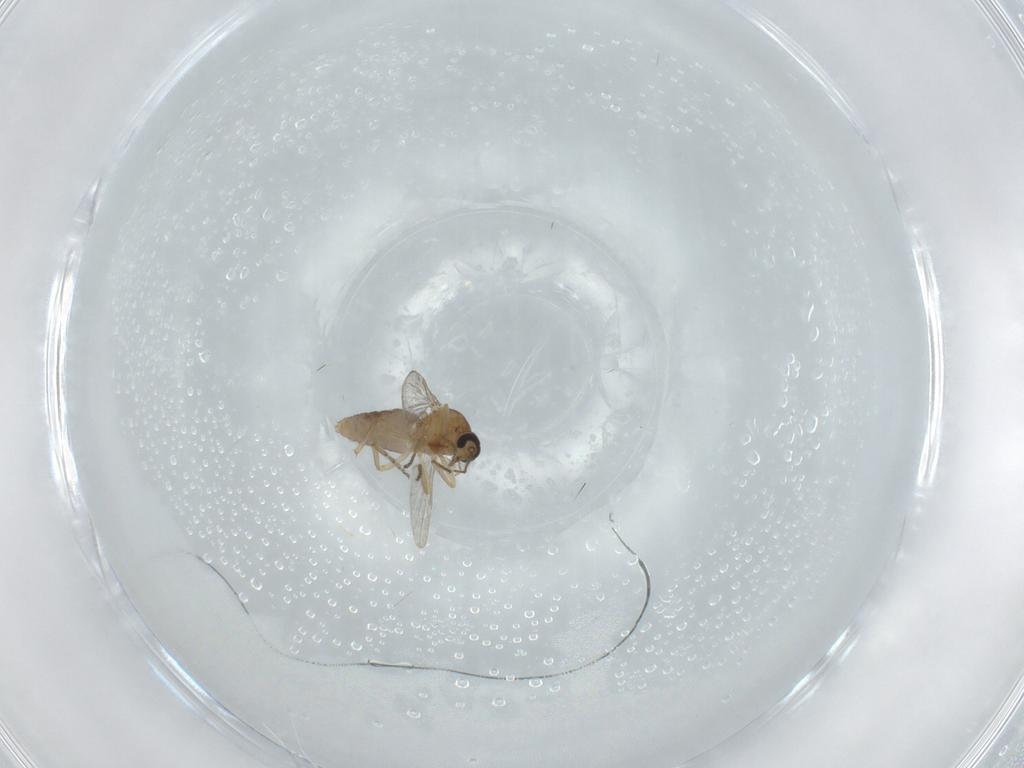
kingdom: Animalia
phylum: Arthropoda
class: Insecta
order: Diptera
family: Ceratopogonidae
